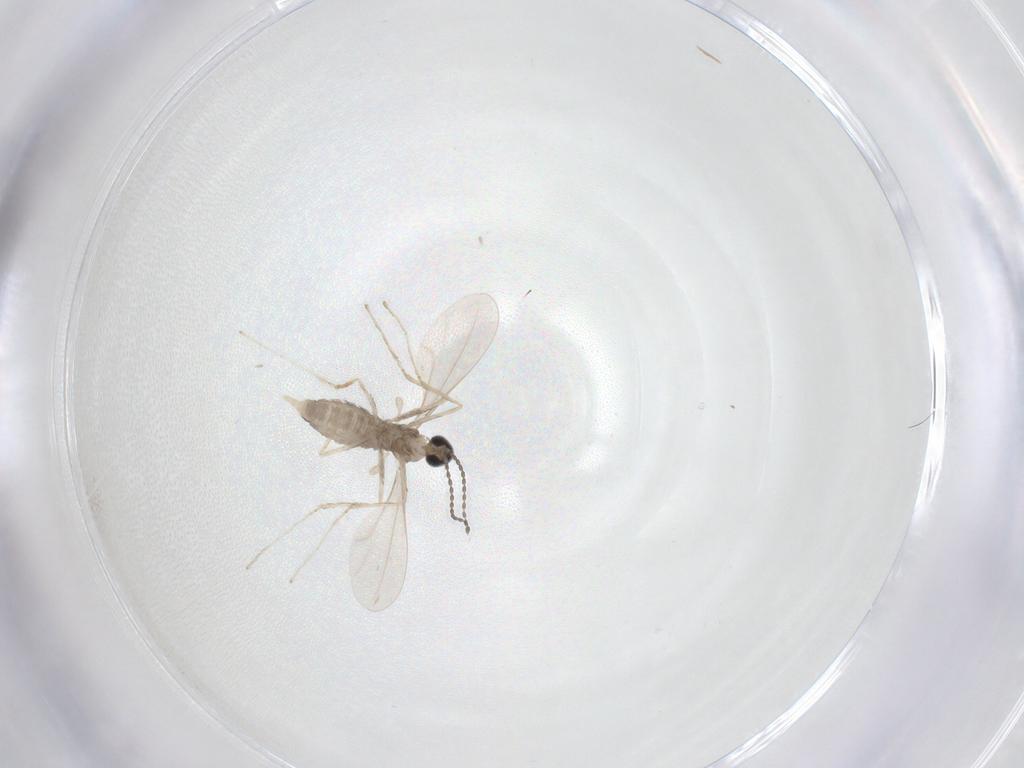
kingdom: Animalia
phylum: Arthropoda
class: Insecta
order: Diptera
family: Cecidomyiidae
